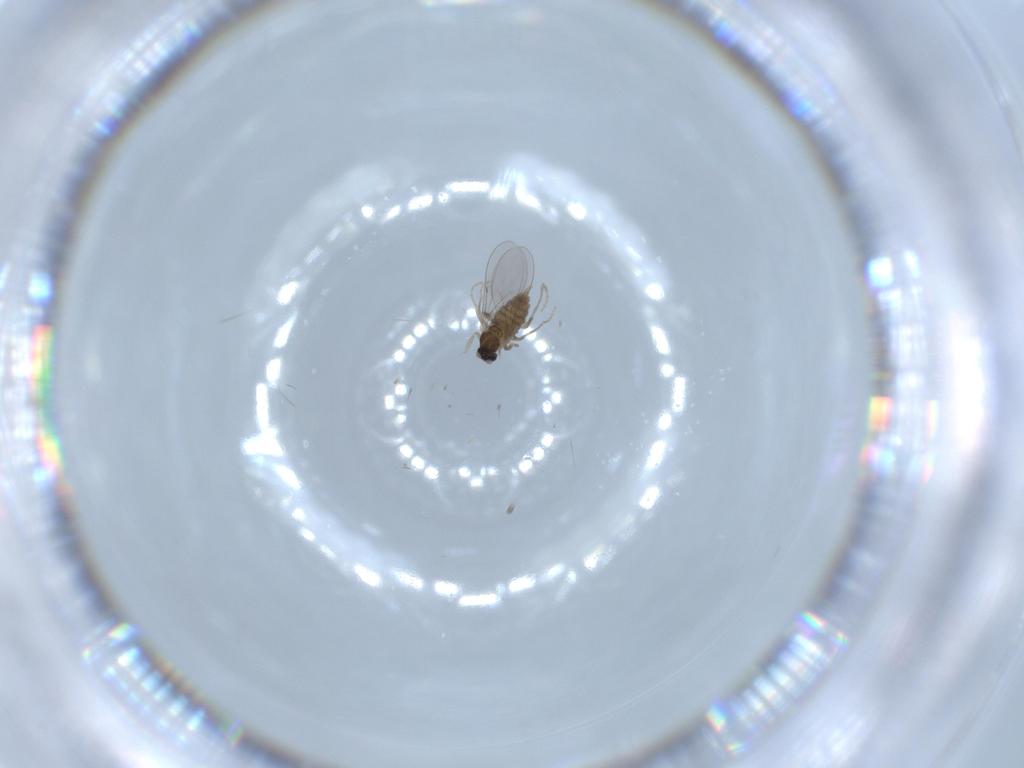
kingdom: Animalia
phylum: Arthropoda
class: Insecta
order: Diptera
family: Cecidomyiidae
